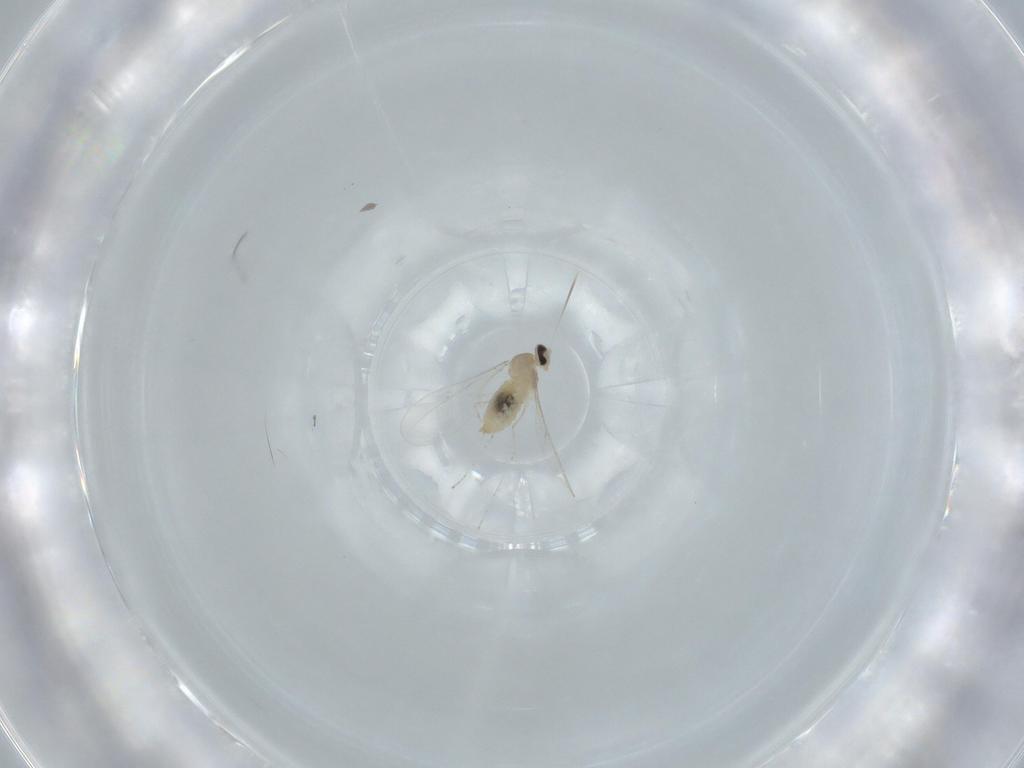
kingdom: Animalia
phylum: Arthropoda
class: Insecta
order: Diptera
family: Cecidomyiidae
